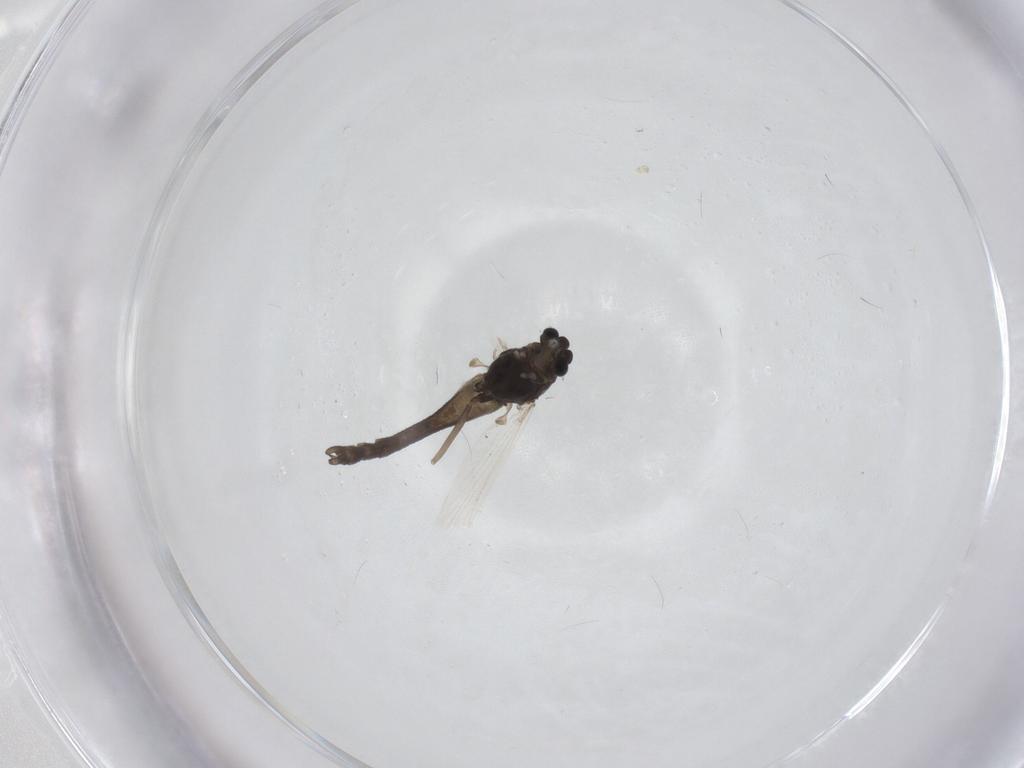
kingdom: Animalia
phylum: Arthropoda
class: Insecta
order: Diptera
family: Chironomidae
